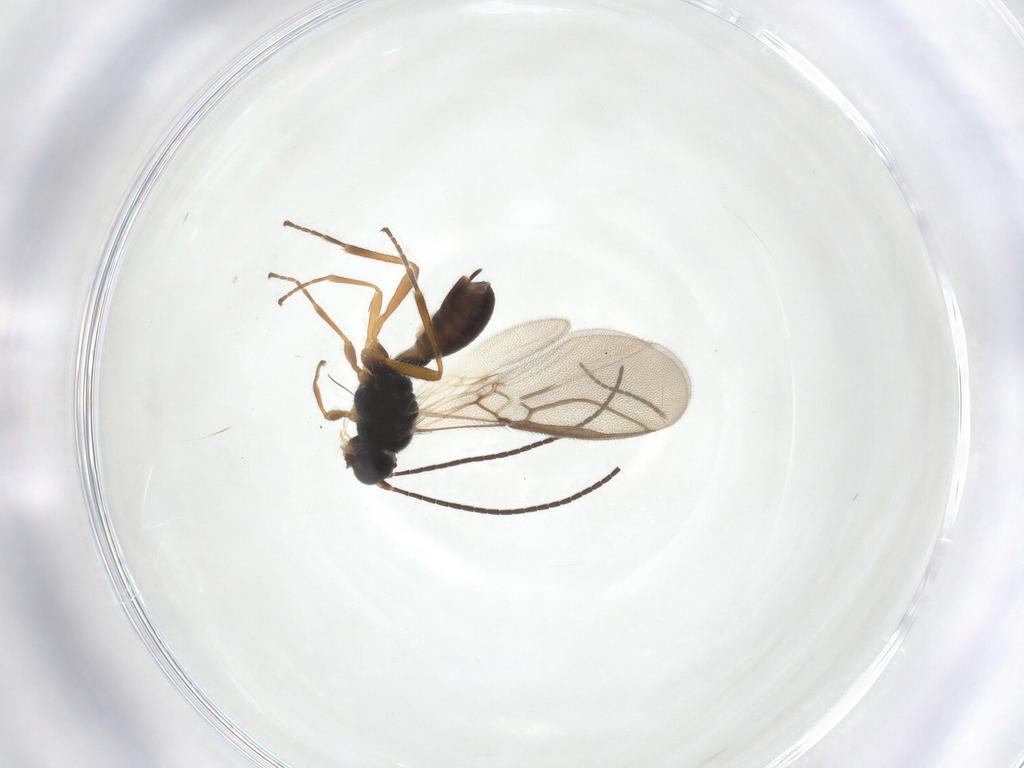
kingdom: Animalia
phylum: Arthropoda
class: Insecta
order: Hymenoptera
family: Braconidae
